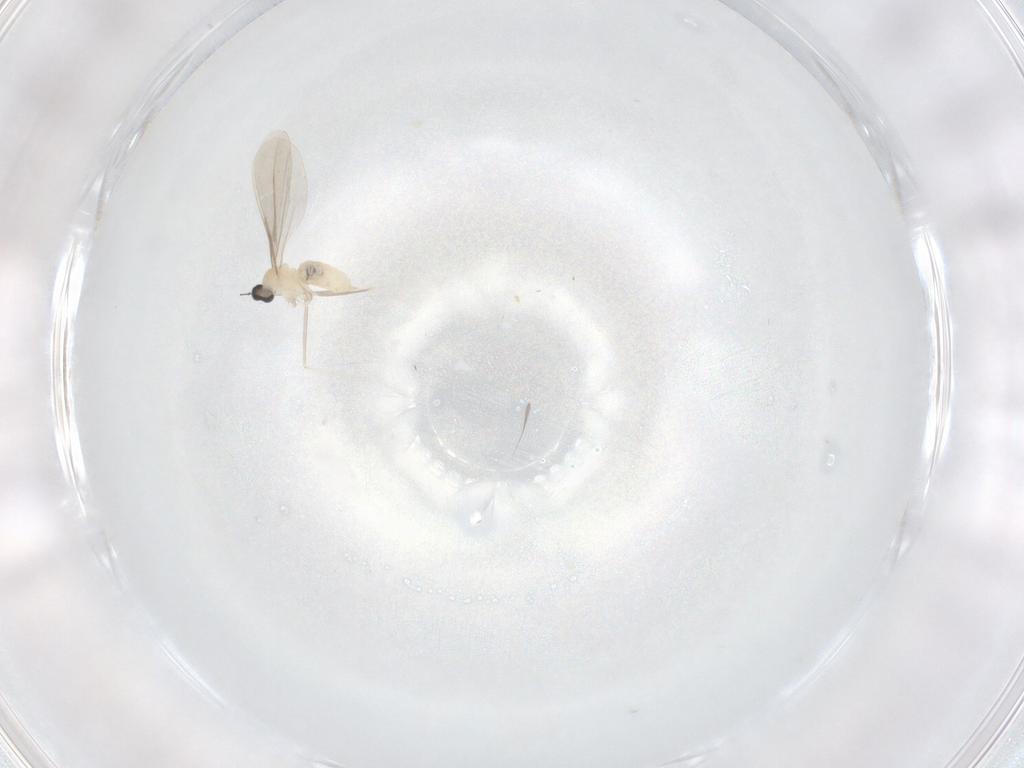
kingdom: Animalia
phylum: Arthropoda
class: Insecta
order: Diptera
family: Cecidomyiidae
